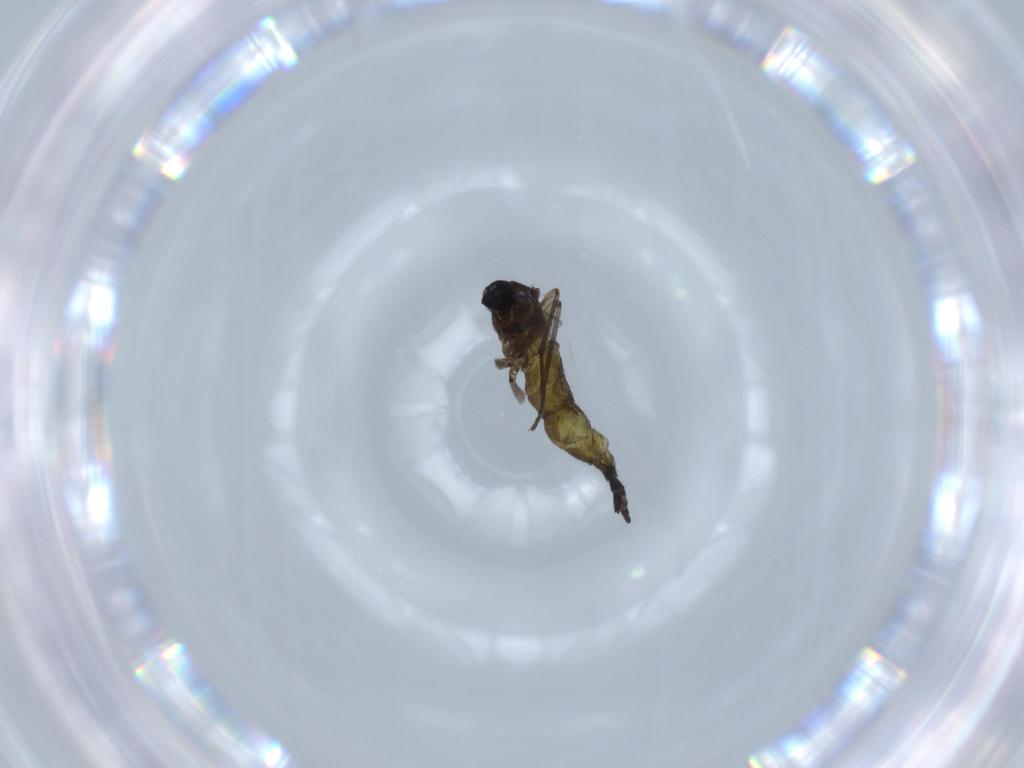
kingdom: Animalia
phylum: Arthropoda
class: Insecta
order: Diptera
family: Sciaridae
